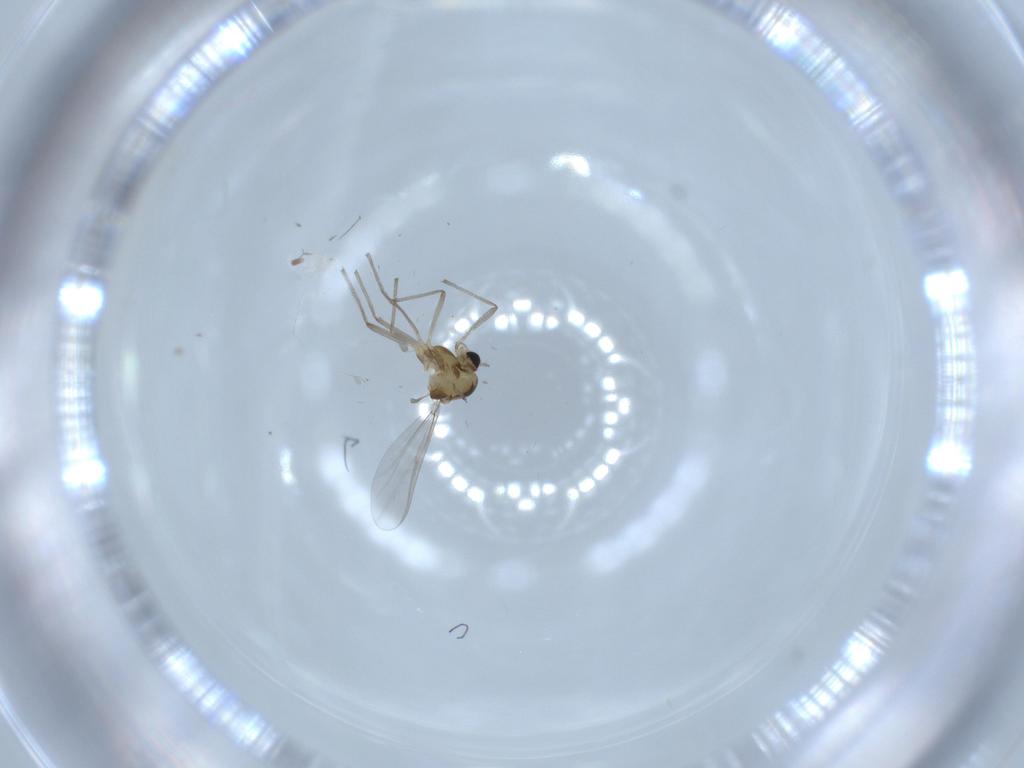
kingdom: Animalia
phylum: Arthropoda
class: Insecta
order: Diptera
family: Chironomidae
